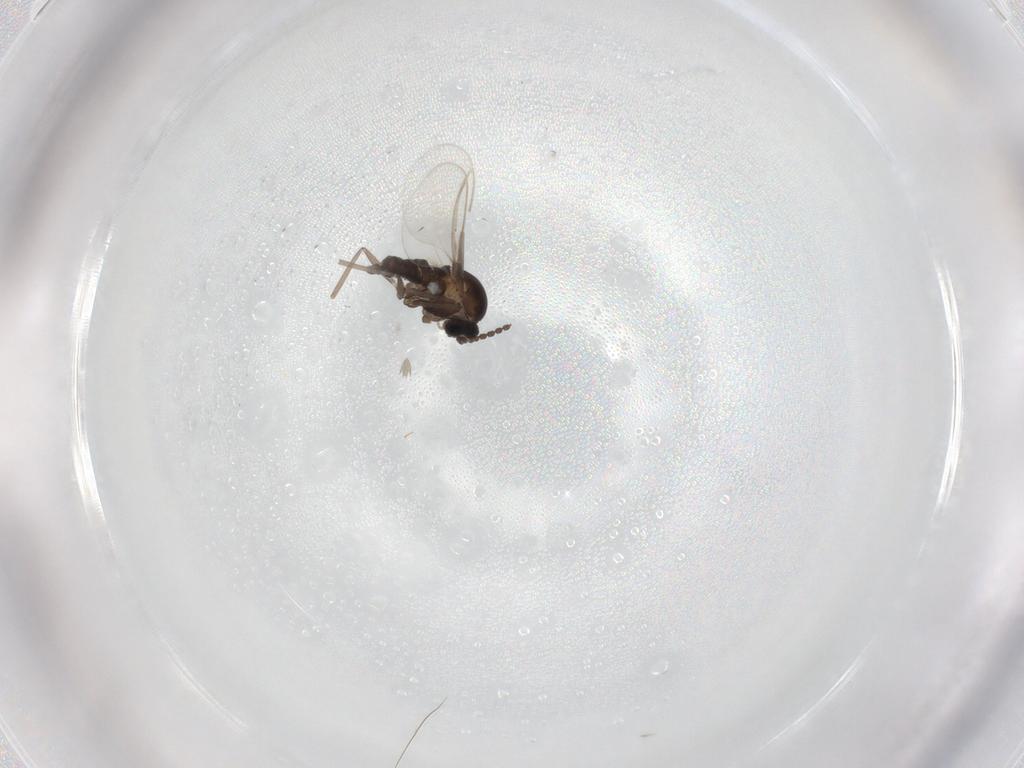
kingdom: Animalia
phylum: Arthropoda
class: Insecta
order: Diptera
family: Cecidomyiidae
